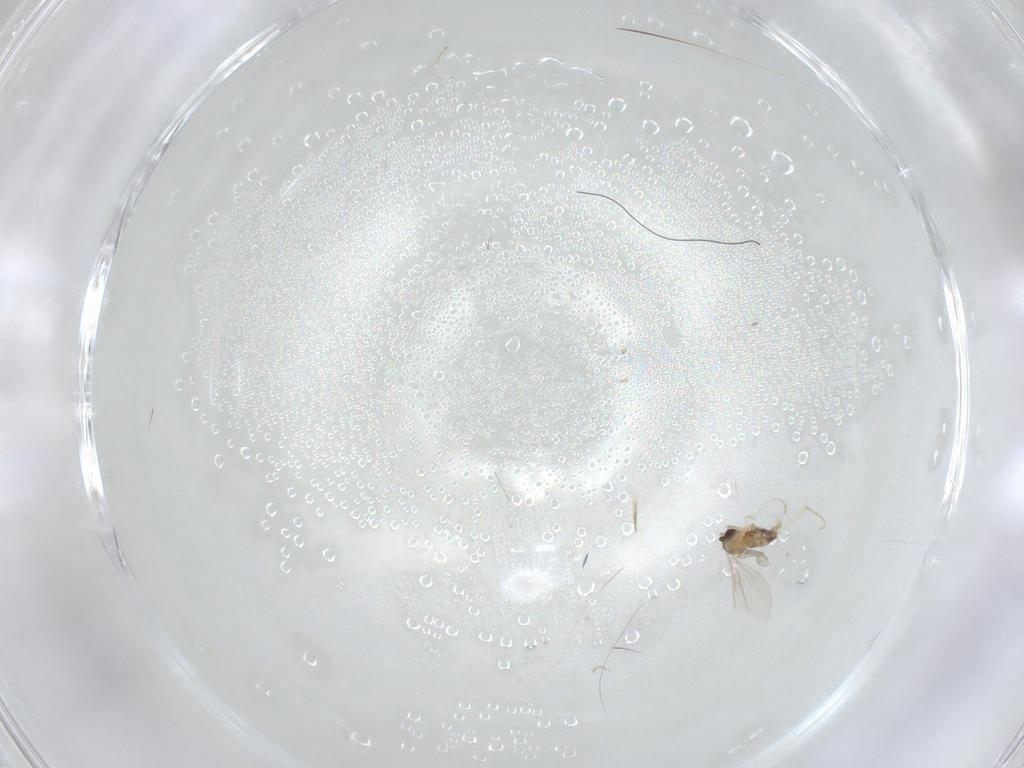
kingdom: Animalia
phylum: Arthropoda
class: Insecta
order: Diptera
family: Cecidomyiidae
